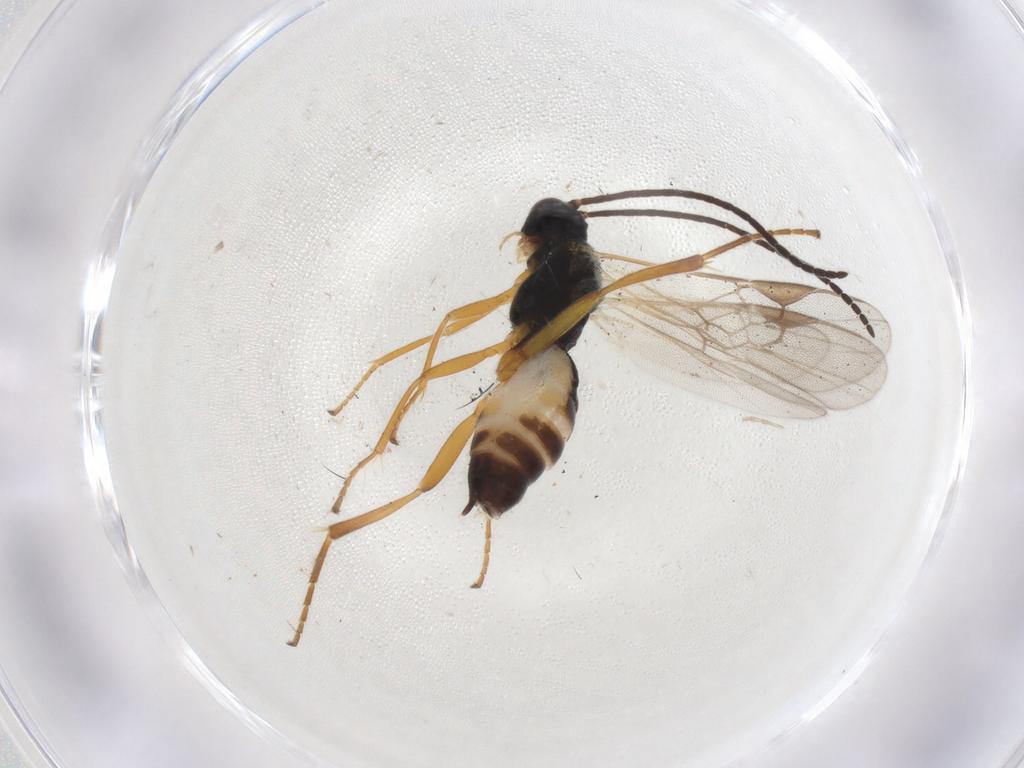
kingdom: Animalia
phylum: Arthropoda
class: Insecta
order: Hymenoptera
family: Braconidae
